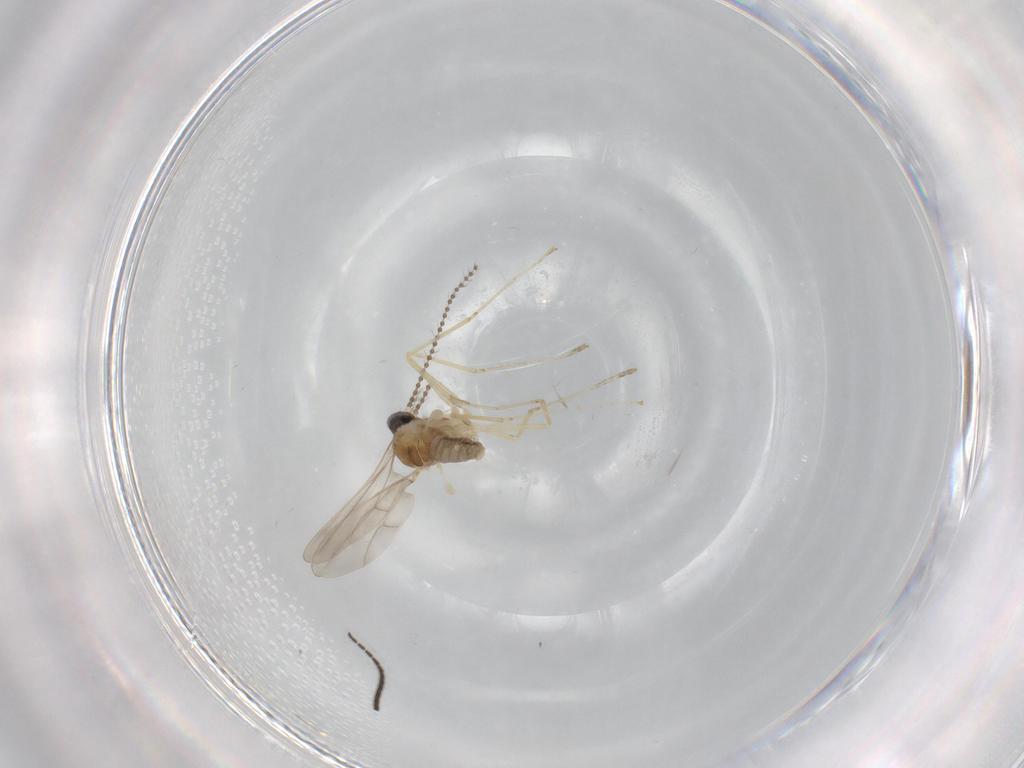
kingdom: Animalia
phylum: Arthropoda
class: Insecta
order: Diptera
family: Cecidomyiidae
